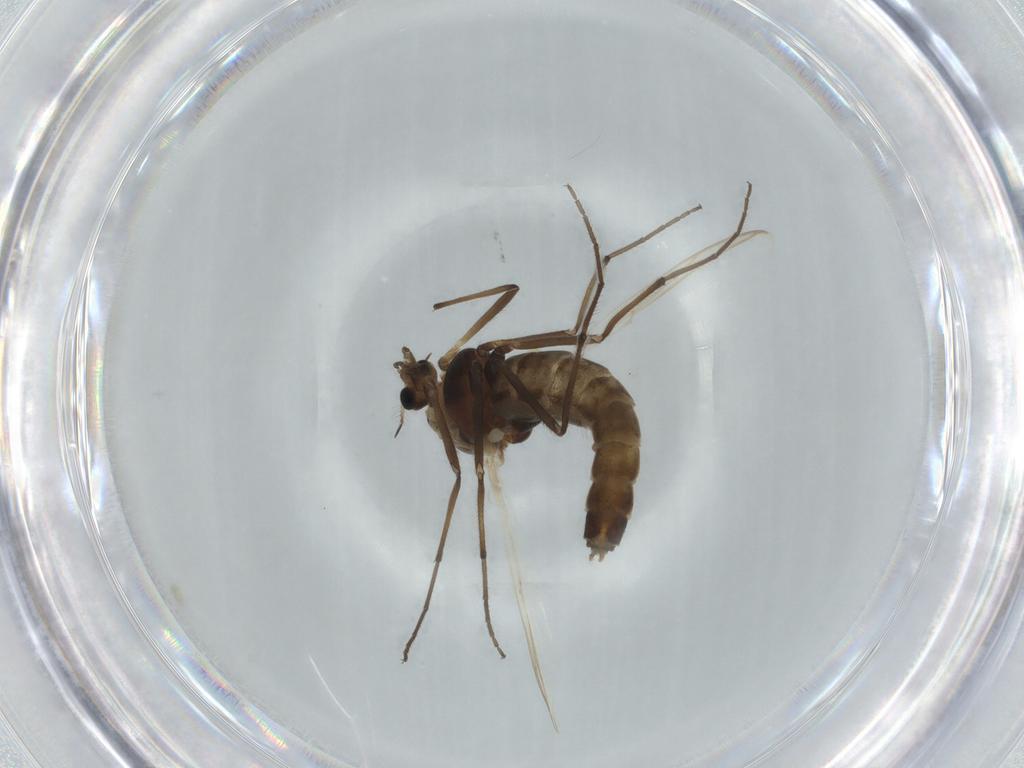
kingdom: Animalia
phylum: Arthropoda
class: Insecta
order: Diptera
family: Chironomidae
